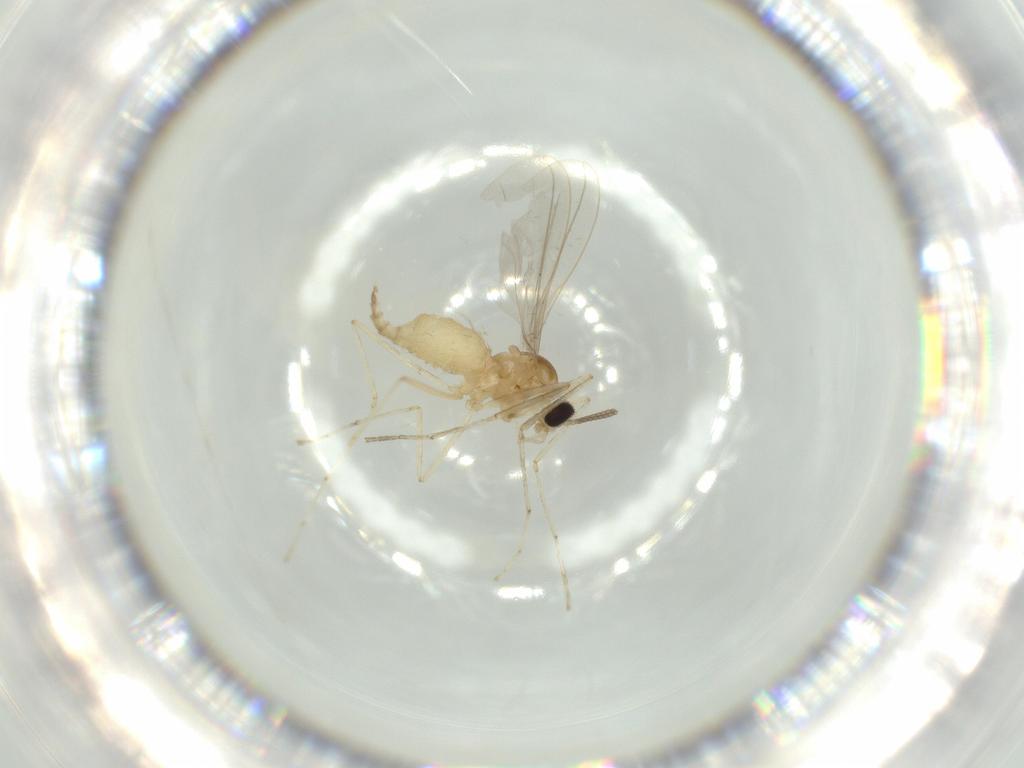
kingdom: Animalia
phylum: Arthropoda
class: Insecta
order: Diptera
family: Cecidomyiidae
